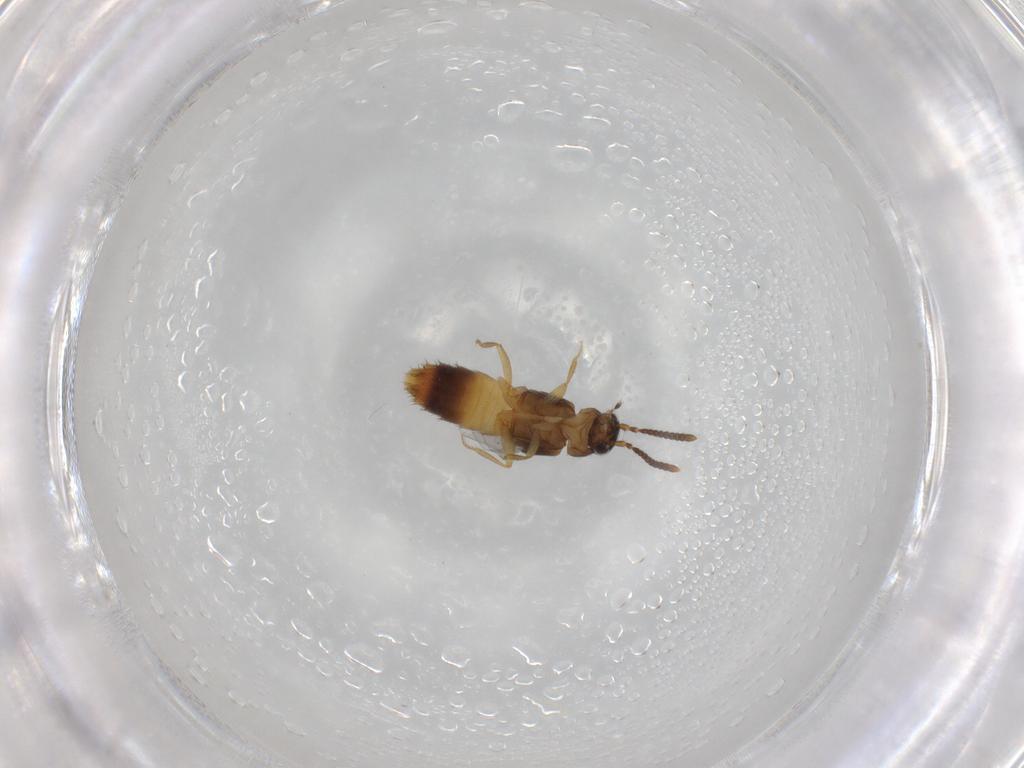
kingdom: Animalia
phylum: Arthropoda
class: Insecta
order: Coleoptera
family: Staphylinidae
